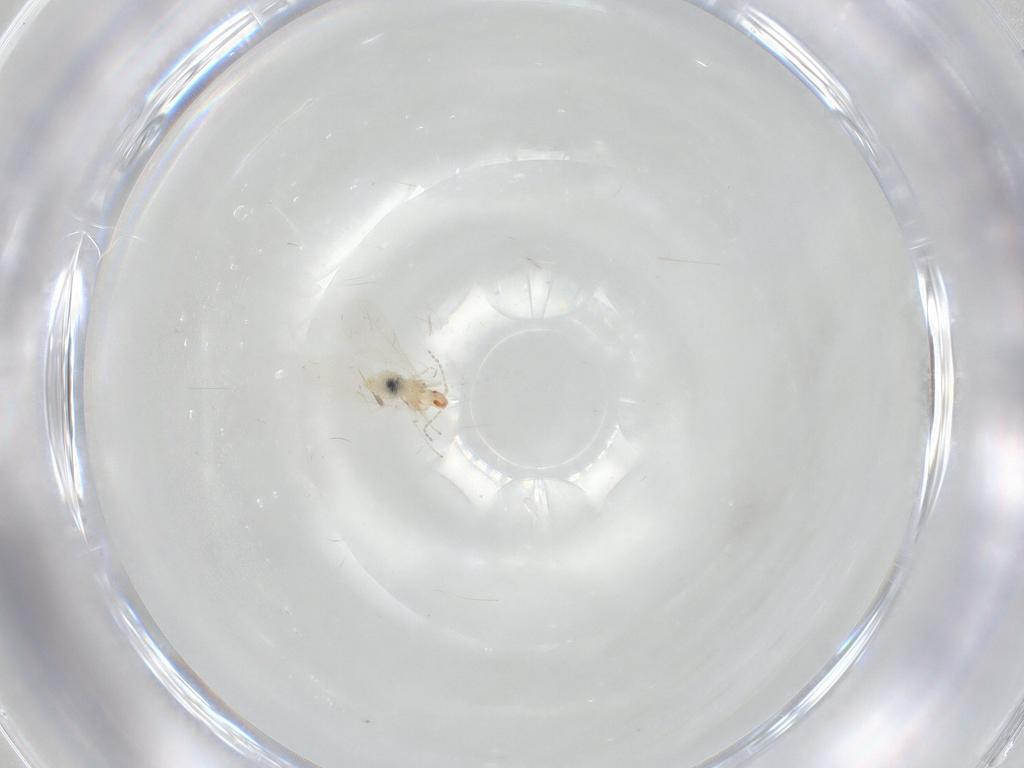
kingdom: Animalia
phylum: Arthropoda
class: Insecta
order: Diptera
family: Cecidomyiidae
